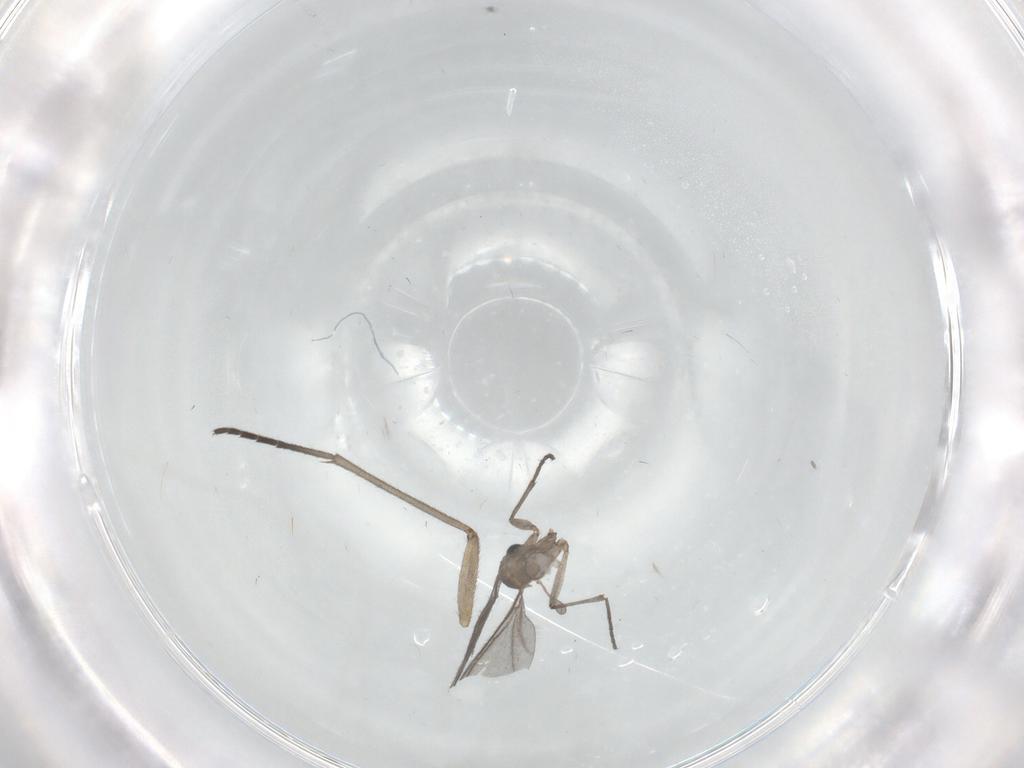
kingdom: Animalia
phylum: Arthropoda
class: Insecta
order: Diptera
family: Sciaridae
